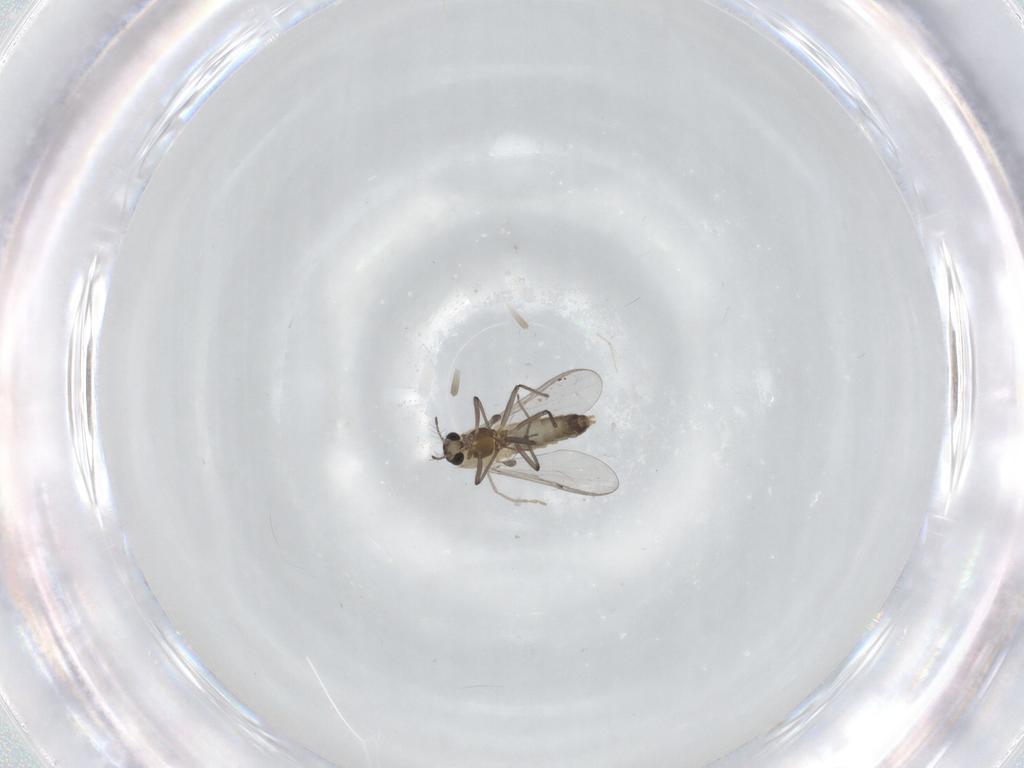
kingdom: Animalia
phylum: Arthropoda
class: Insecta
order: Diptera
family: Chironomidae
